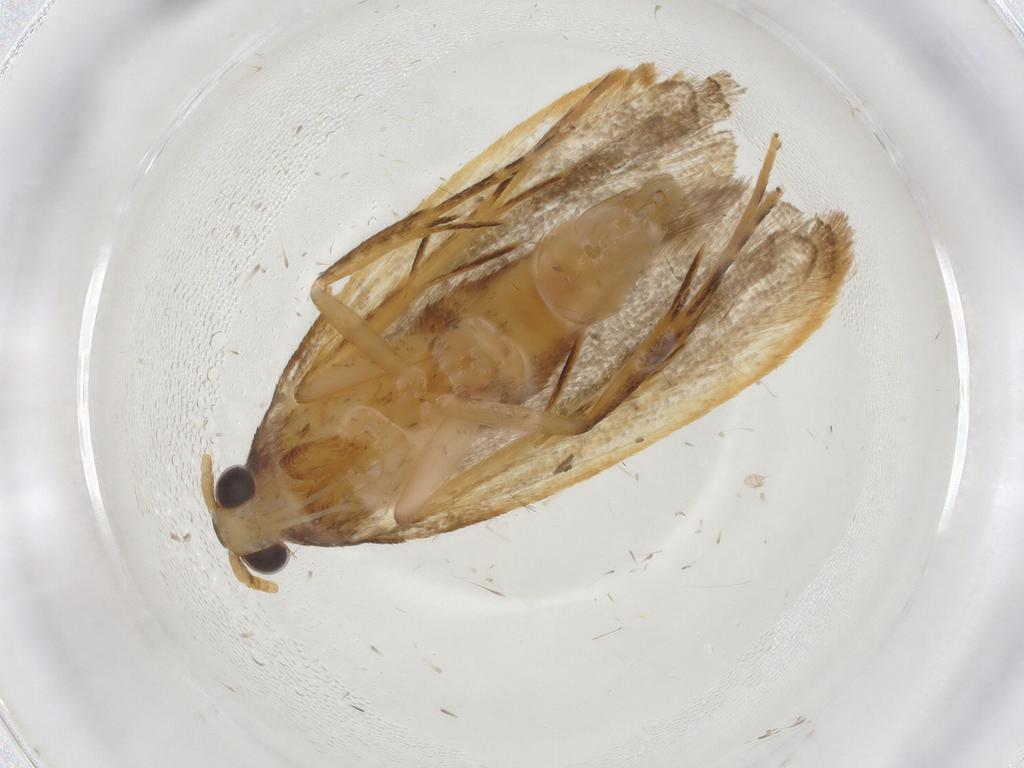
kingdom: Animalia
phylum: Arthropoda
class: Insecta
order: Lepidoptera
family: Lecithoceridae
